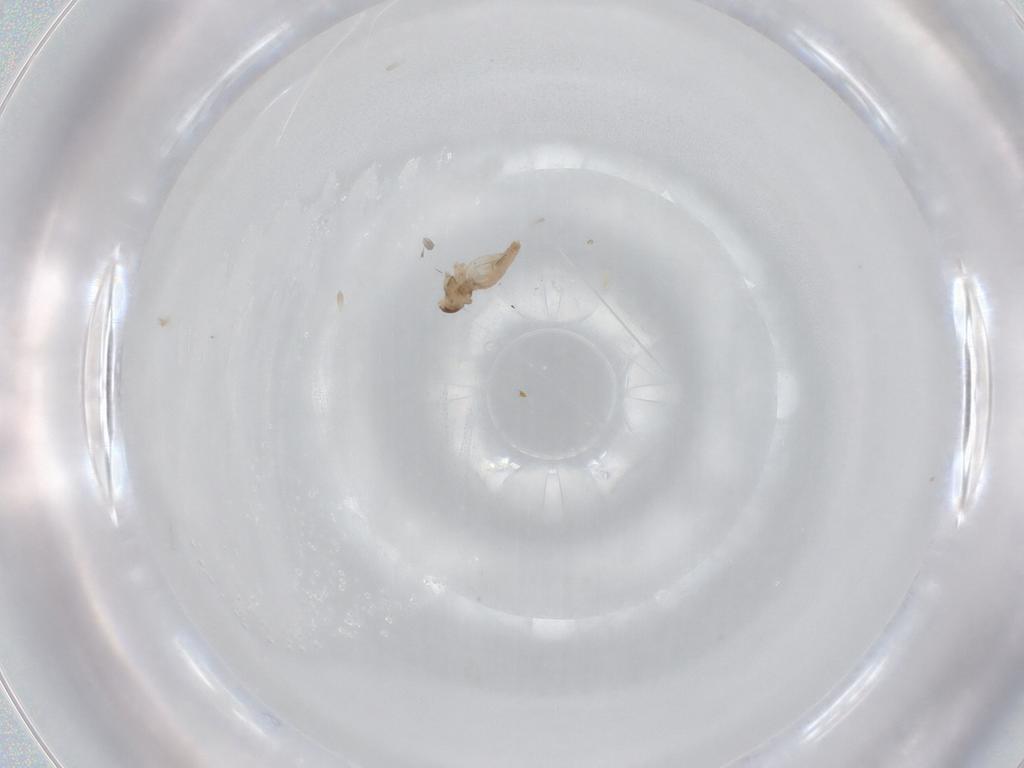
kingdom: Animalia
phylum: Arthropoda
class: Insecta
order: Diptera
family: Cecidomyiidae
